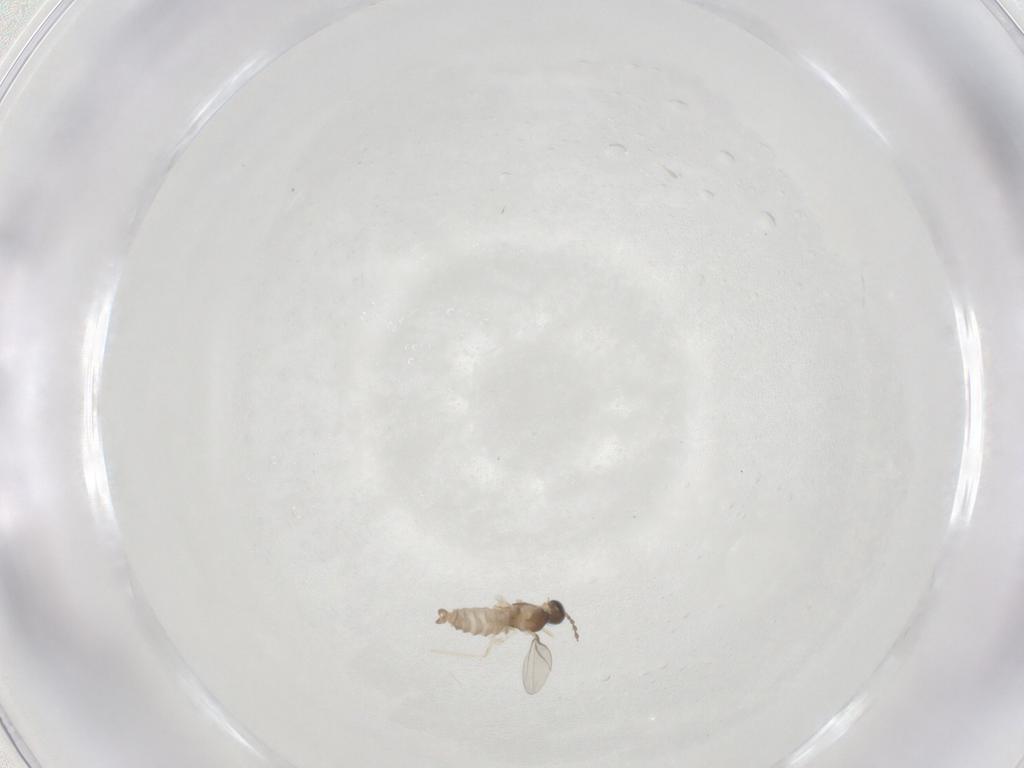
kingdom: Animalia
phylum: Arthropoda
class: Insecta
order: Diptera
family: Cecidomyiidae
